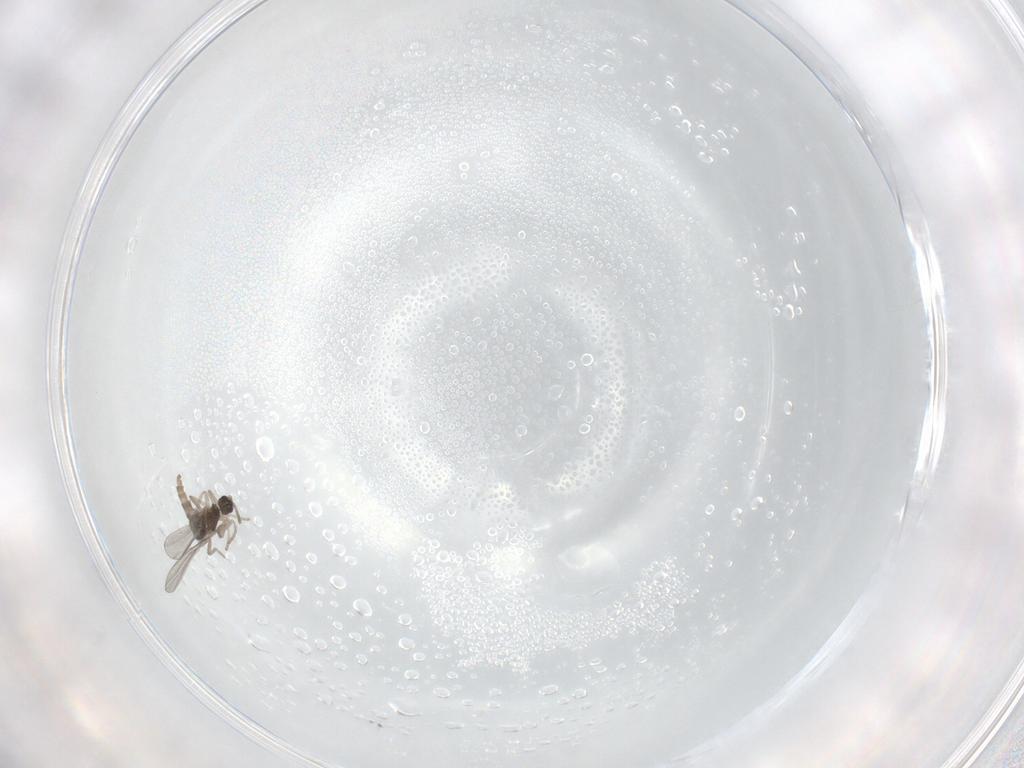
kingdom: Animalia
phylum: Arthropoda
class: Insecta
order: Diptera
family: Cecidomyiidae
